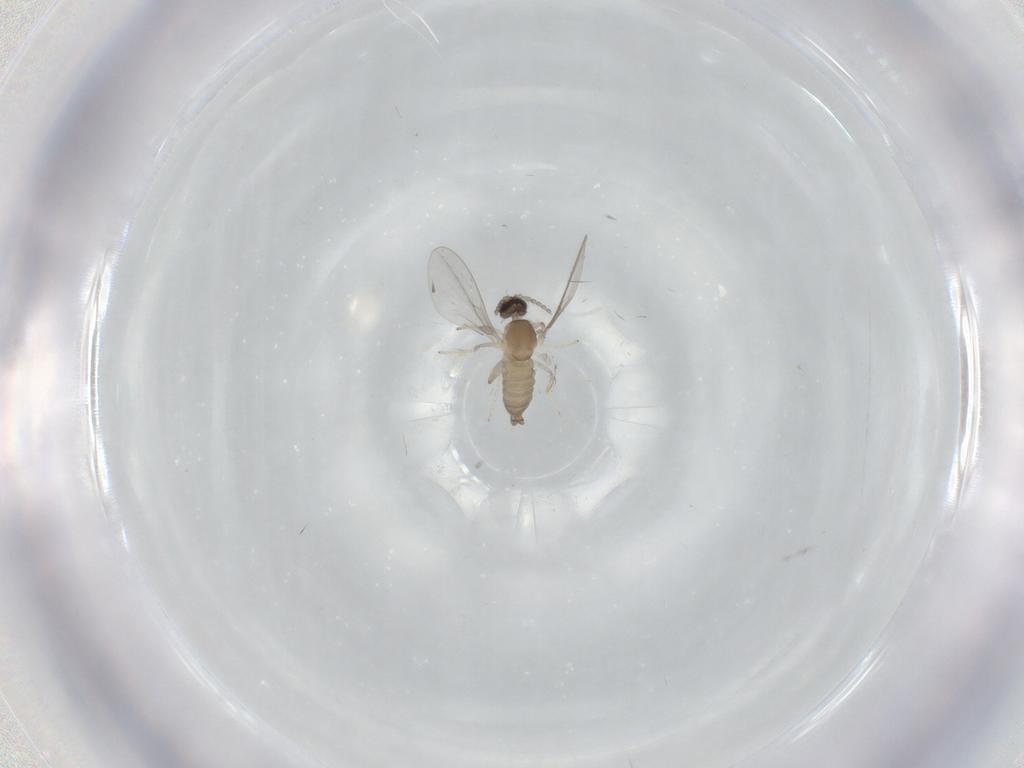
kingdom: Animalia
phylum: Arthropoda
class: Insecta
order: Diptera
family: Cecidomyiidae
